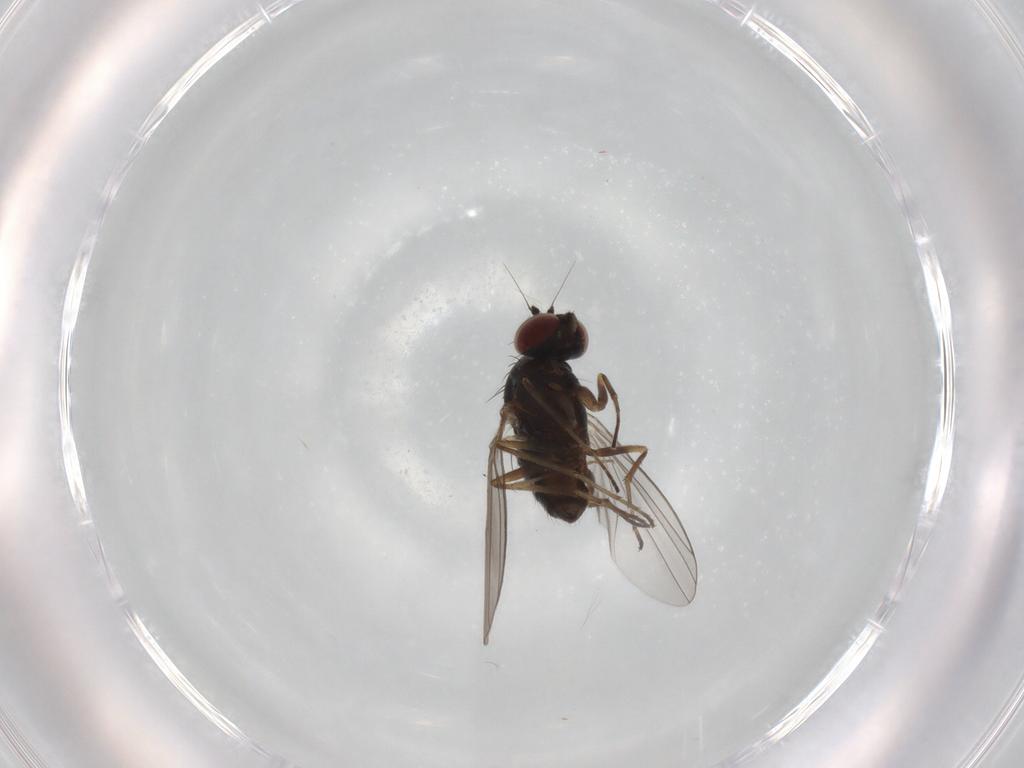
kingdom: Animalia
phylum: Arthropoda
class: Insecta
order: Diptera
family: Dolichopodidae
